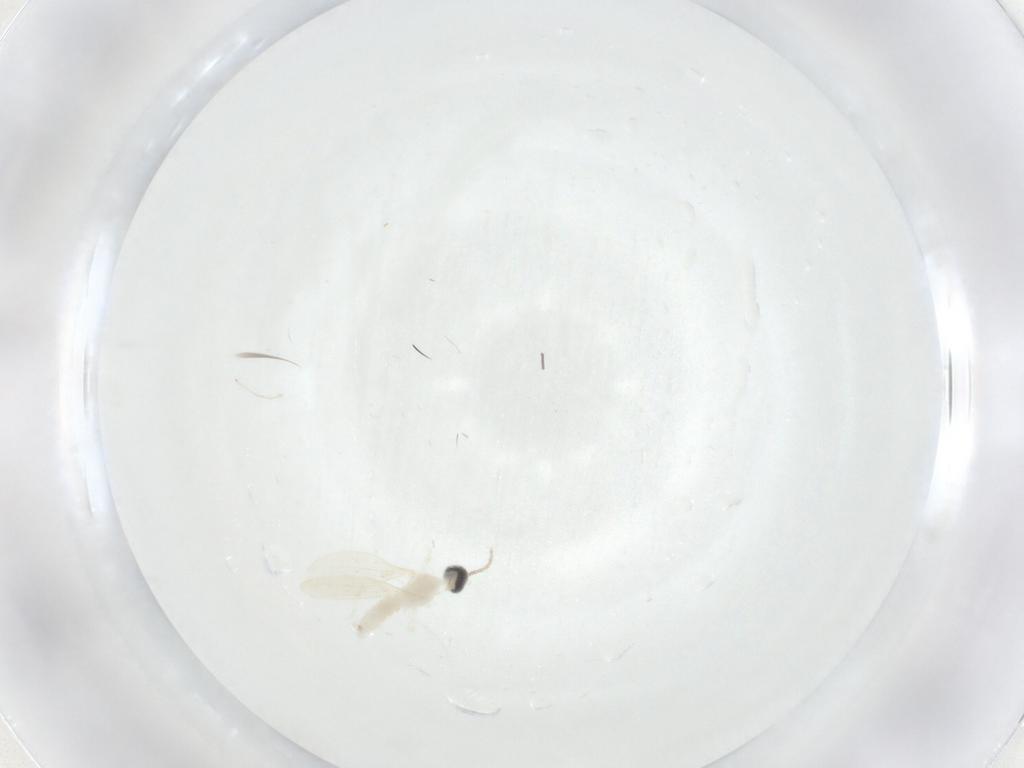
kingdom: Animalia
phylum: Arthropoda
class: Insecta
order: Diptera
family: Cecidomyiidae
